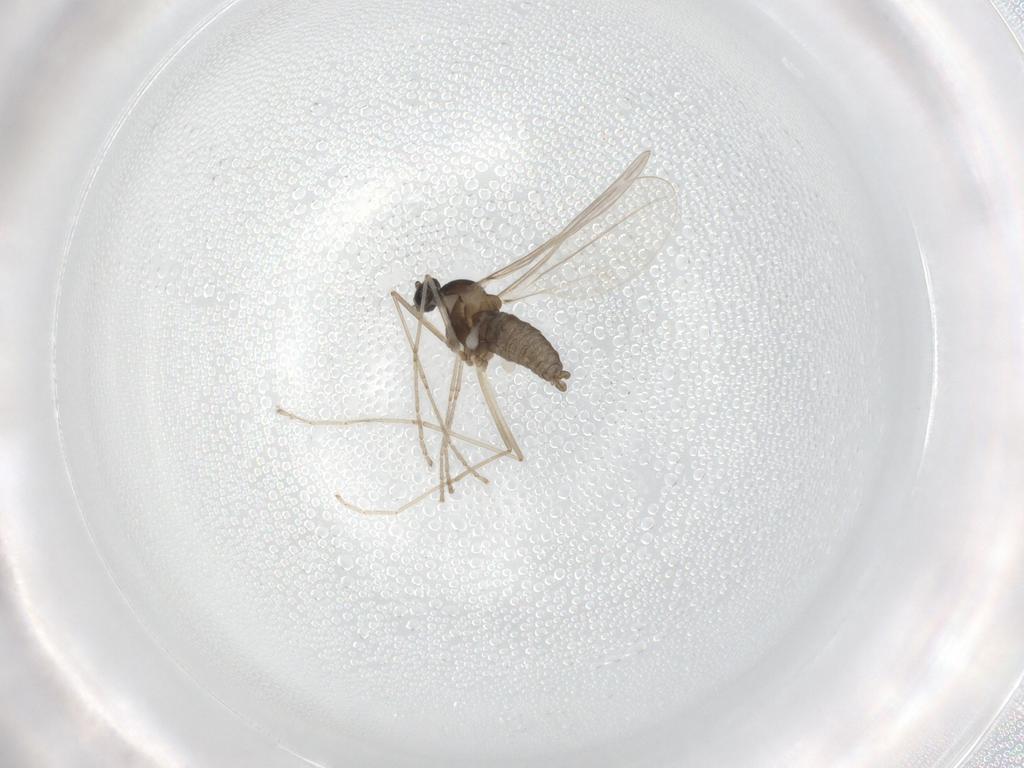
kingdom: Animalia
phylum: Arthropoda
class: Insecta
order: Diptera
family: Cecidomyiidae
